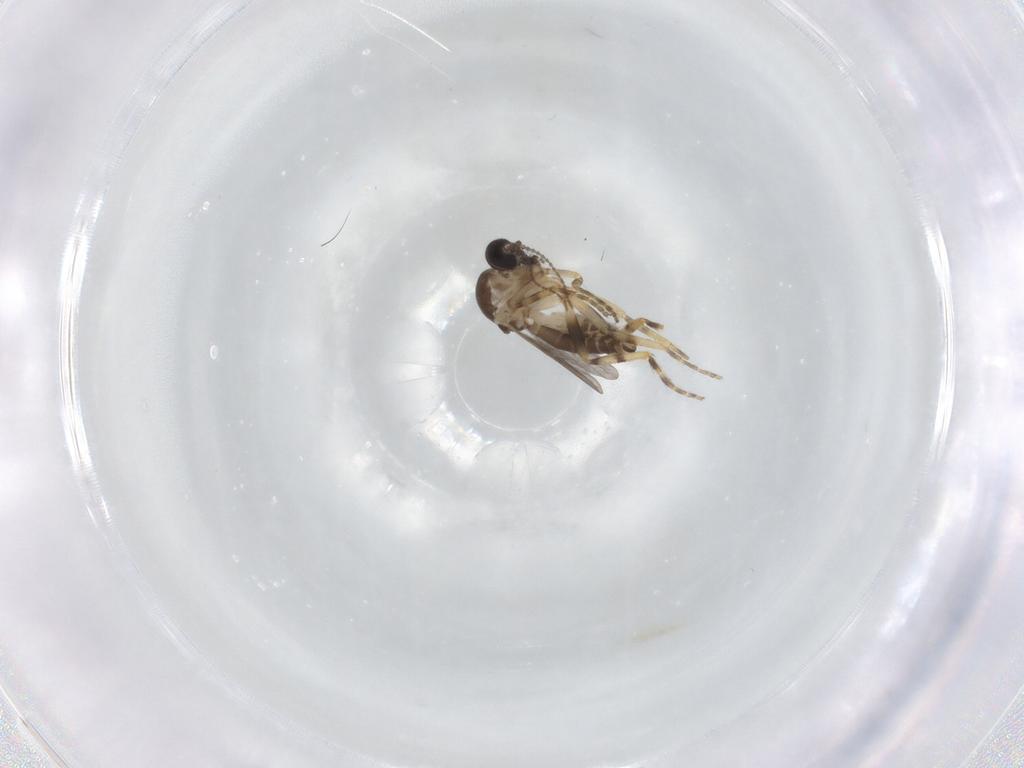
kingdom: Animalia
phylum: Arthropoda
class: Insecta
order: Diptera
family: Ceratopogonidae
